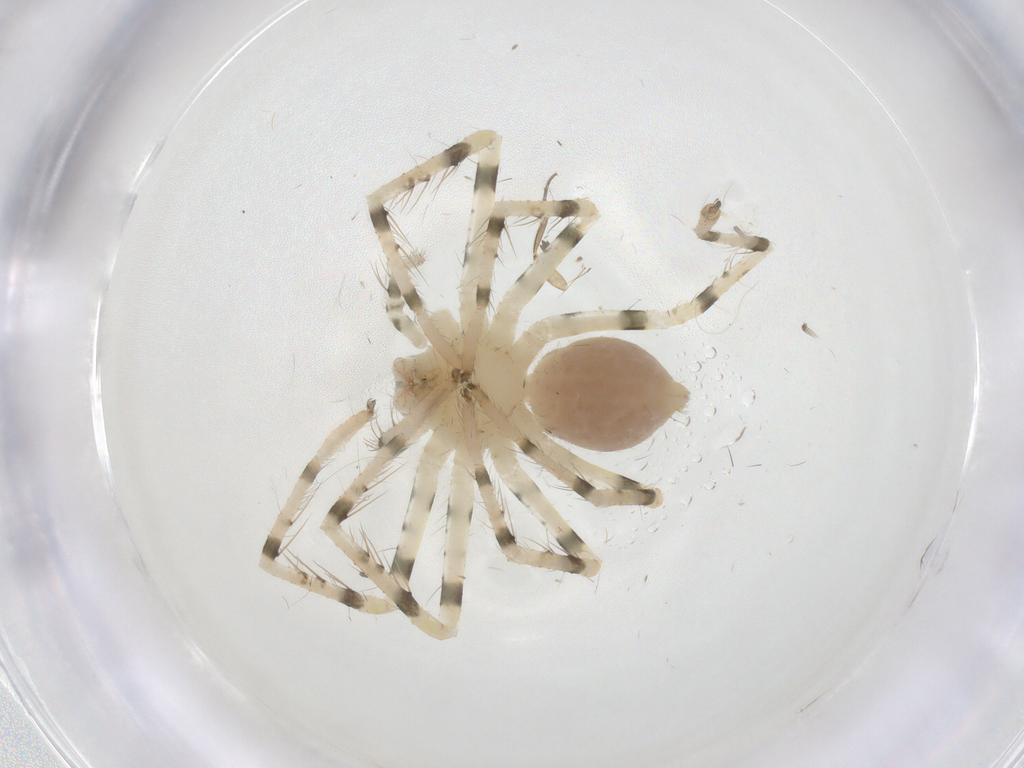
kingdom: Animalia
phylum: Arthropoda
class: Arachnida
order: Araneae
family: Sparassidae
